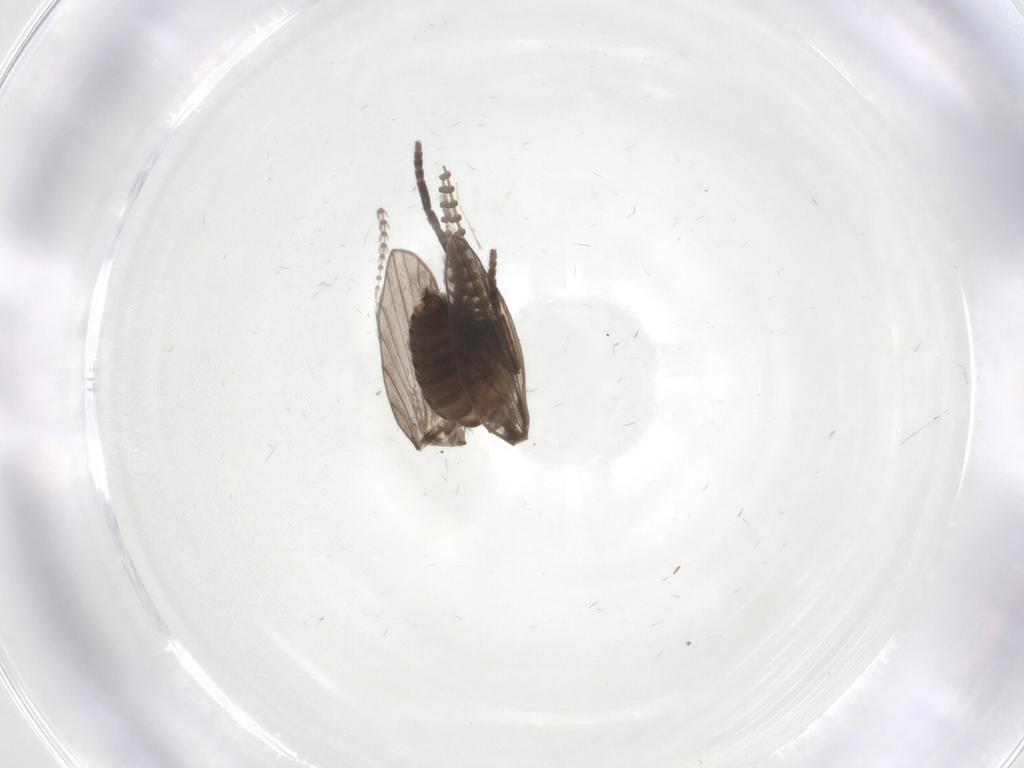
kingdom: Animalia
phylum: Arthropoda
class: Insecta
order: Diptera
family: Psychodidae
